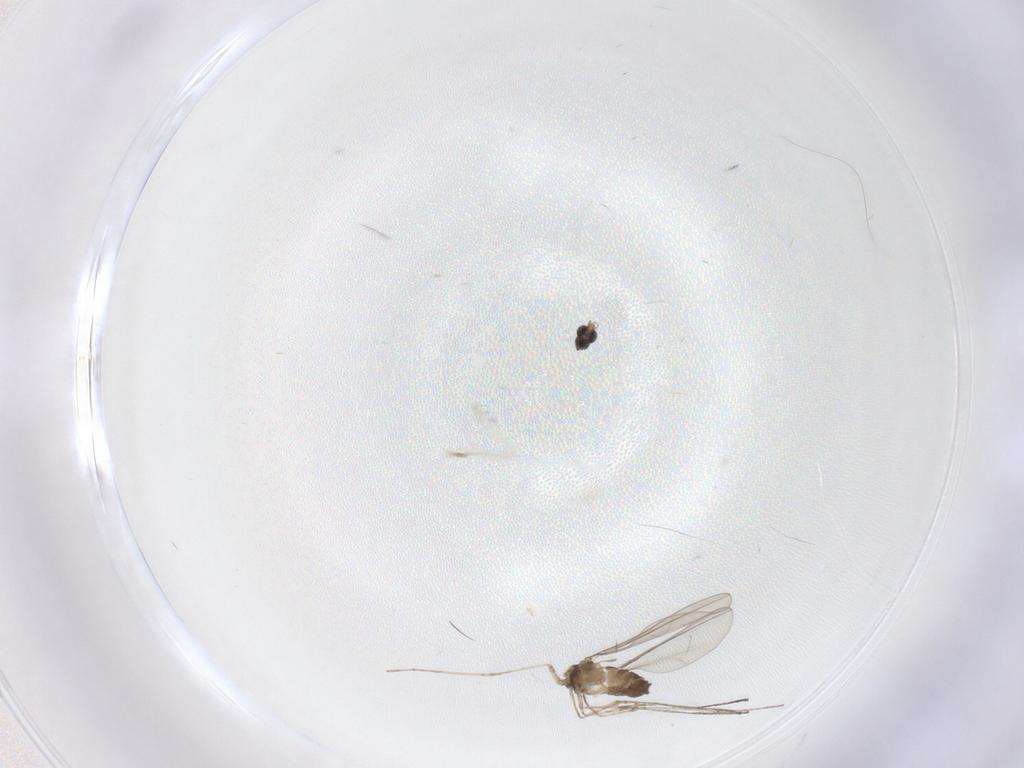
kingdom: Animalia
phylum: Arthropoda
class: Insecta
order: Diptera
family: Cecidomyiidae
